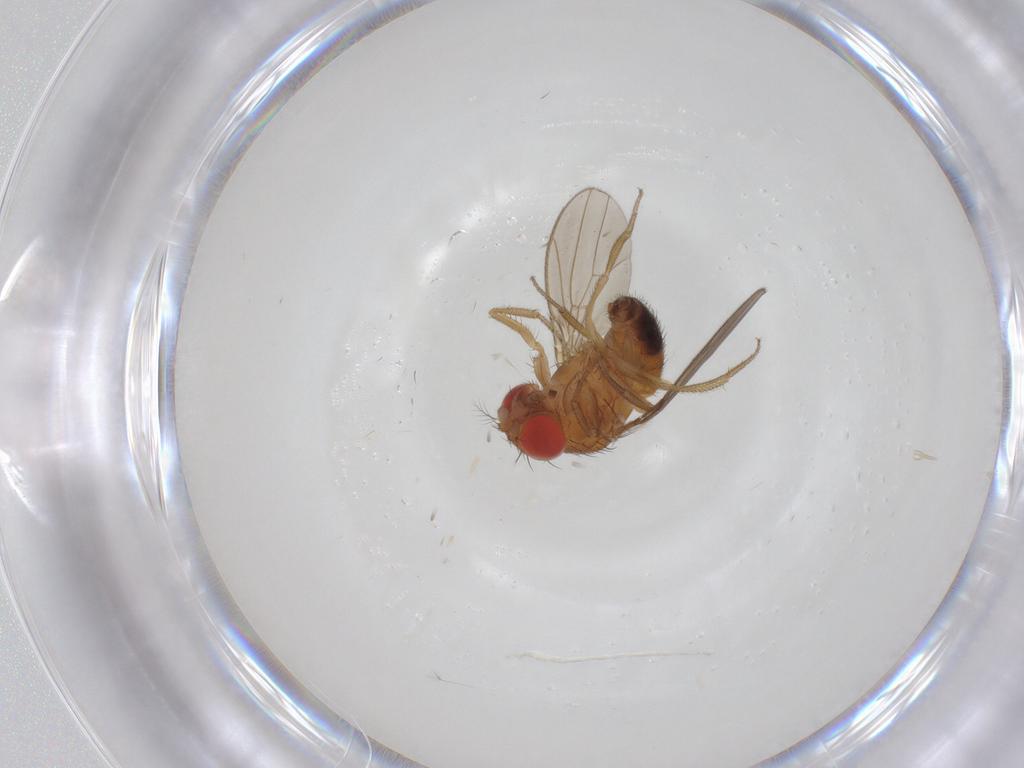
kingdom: Animalia
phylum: Arthropoda
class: Insecta
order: Diptera
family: Drosophilidae
